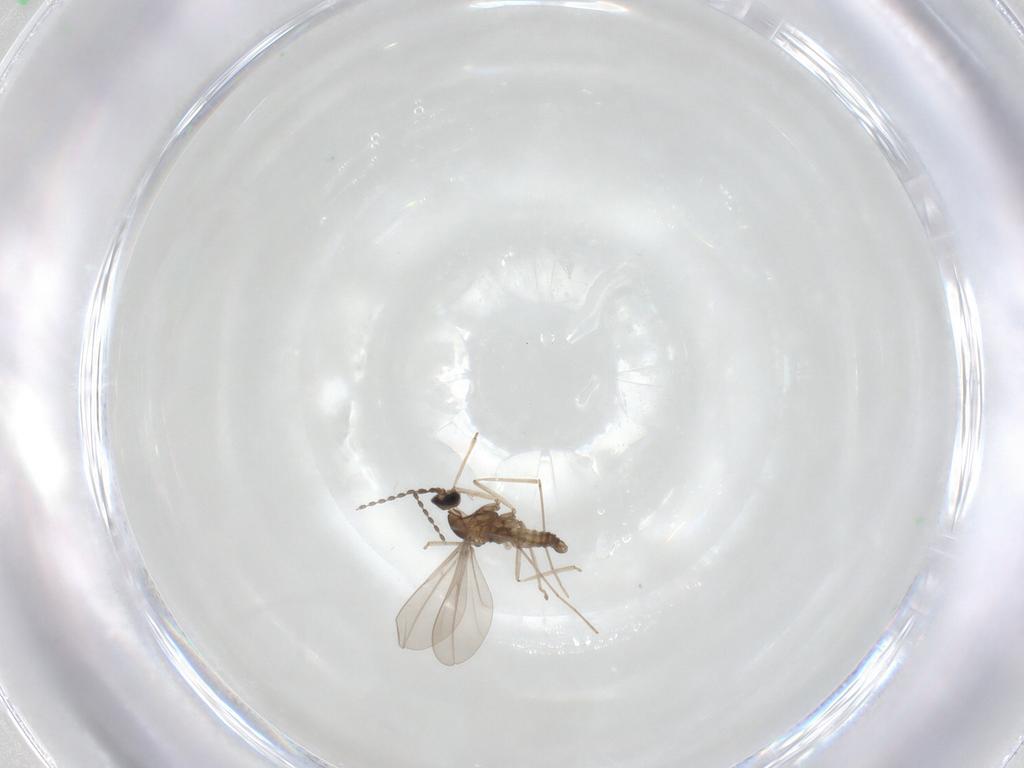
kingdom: Animalia
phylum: Arthropoda
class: Insecta
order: Diptera
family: Cecidomyiidae
